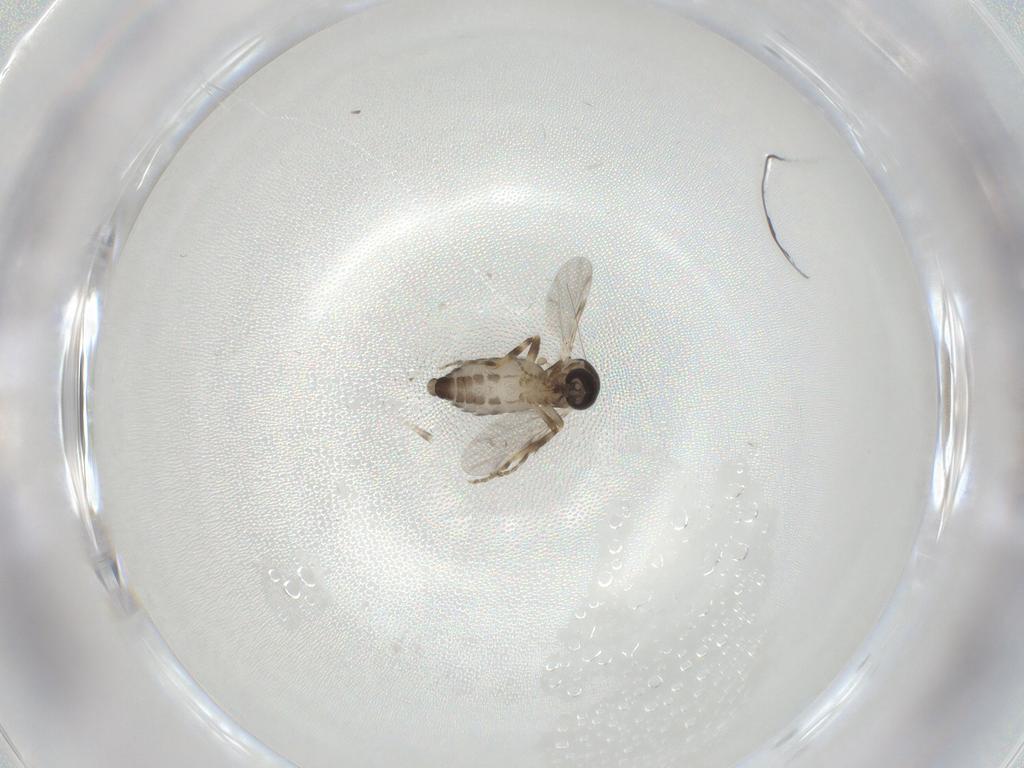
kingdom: Animalia
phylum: Arthropoda
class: Insecta
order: Diptera
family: Ceratopogonidae
